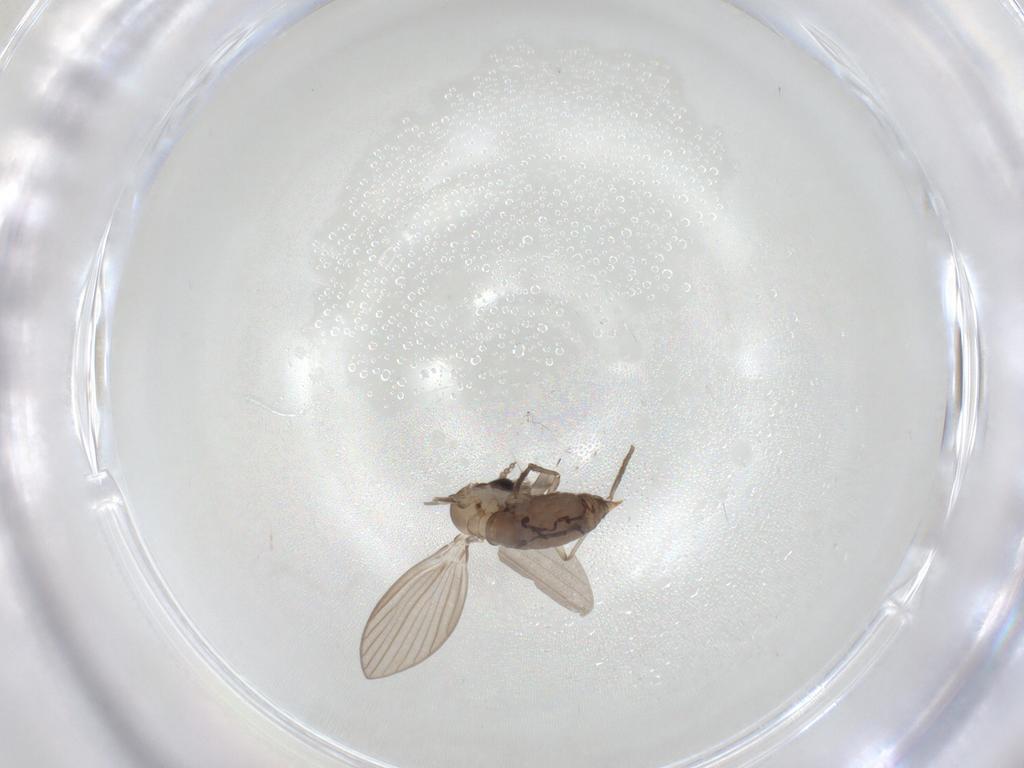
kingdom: Animalia
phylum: Arthropoda
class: Insecta
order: Diptera
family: Psychodidae
